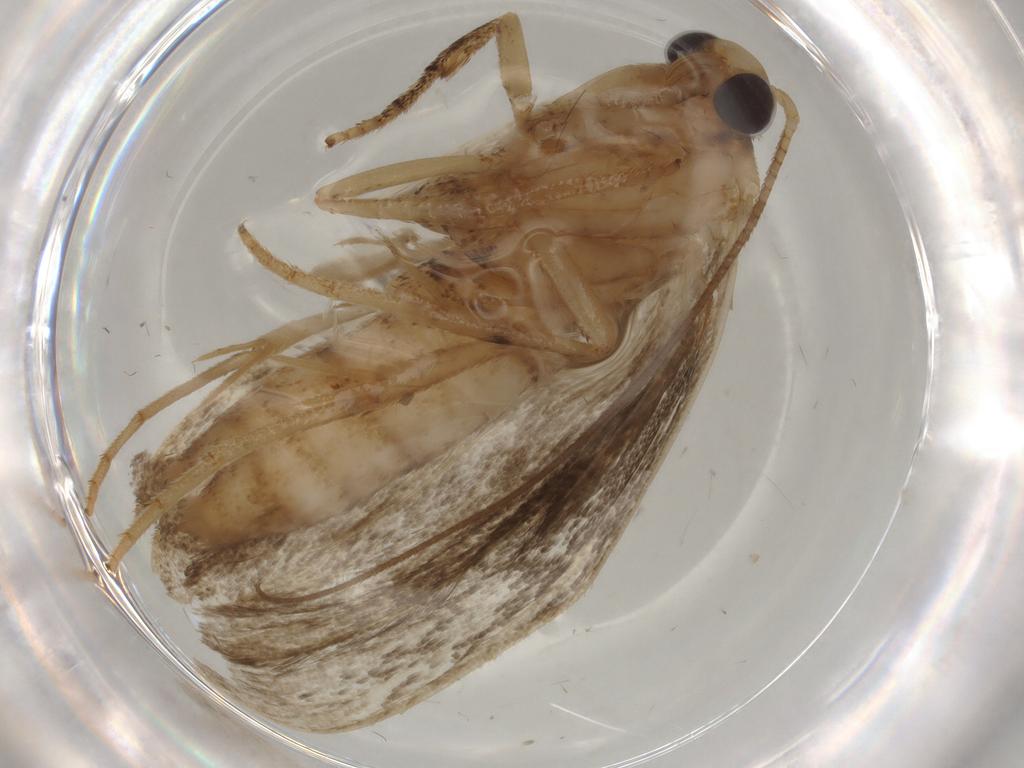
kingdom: Animalia
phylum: Arthropoda
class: Insecta
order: Lepidoptera
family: Yponomeutidae
